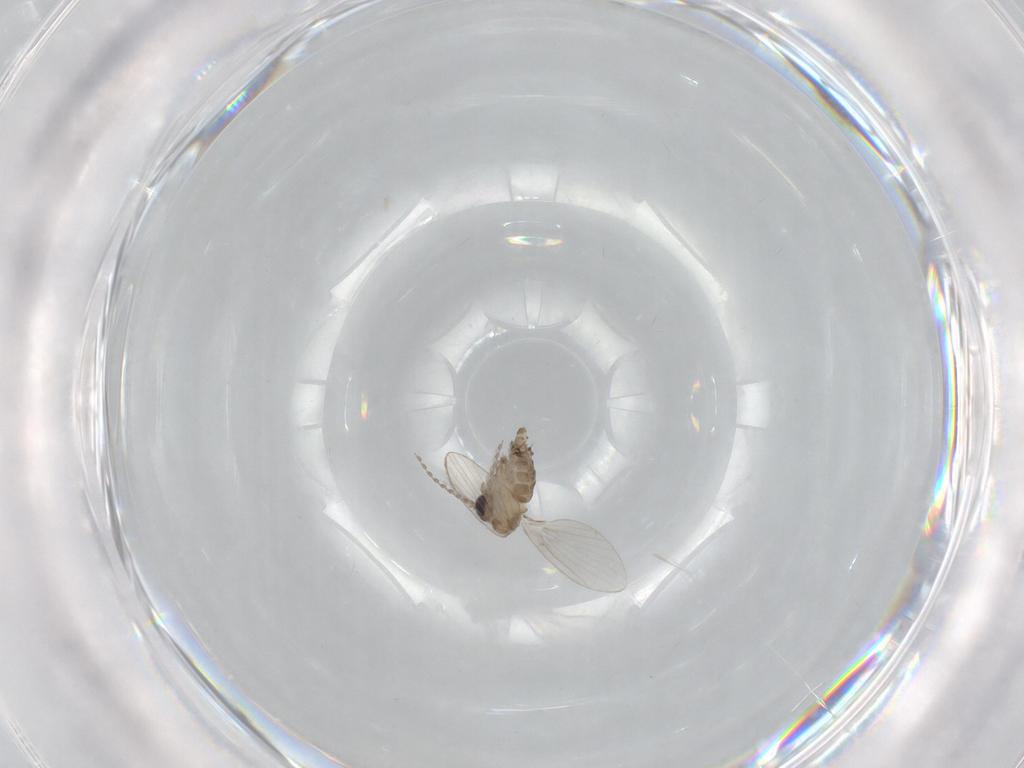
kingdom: Animalia
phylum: Arthropoda
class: Insecta
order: Diptera
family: Psychodidae
